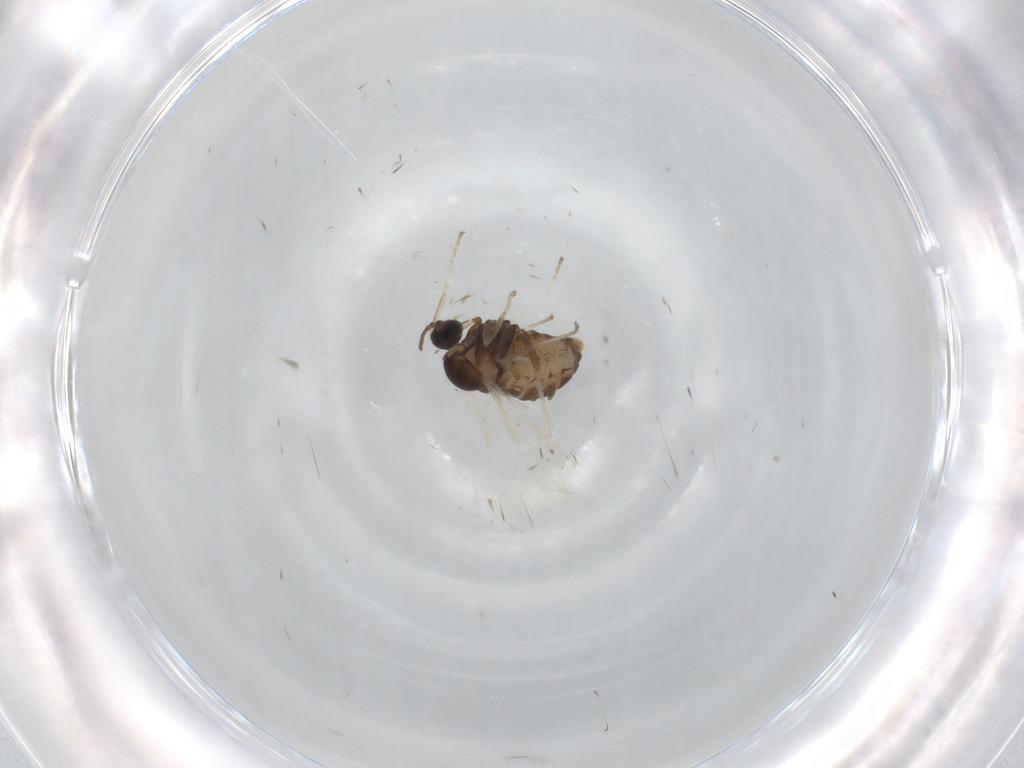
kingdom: Animalia
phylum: Arthropoda
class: Insecta
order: Diptera
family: Cecidomyiidae
